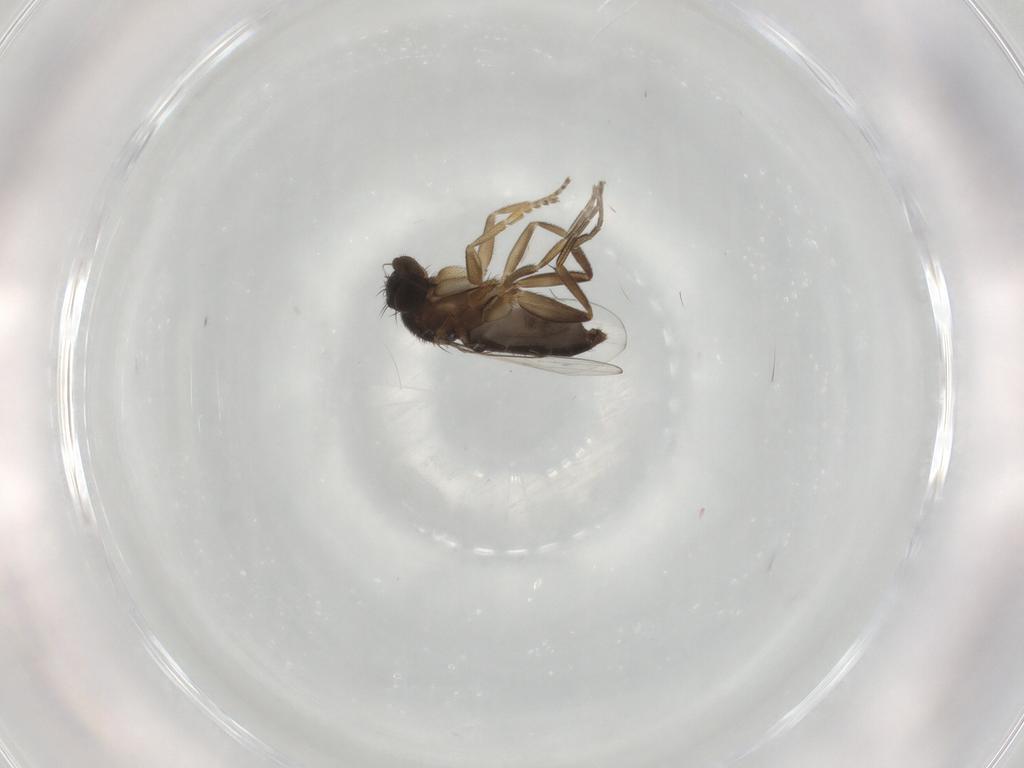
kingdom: Animalia
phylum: Arthropoda
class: Insecta
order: Diptera
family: Phoridae
